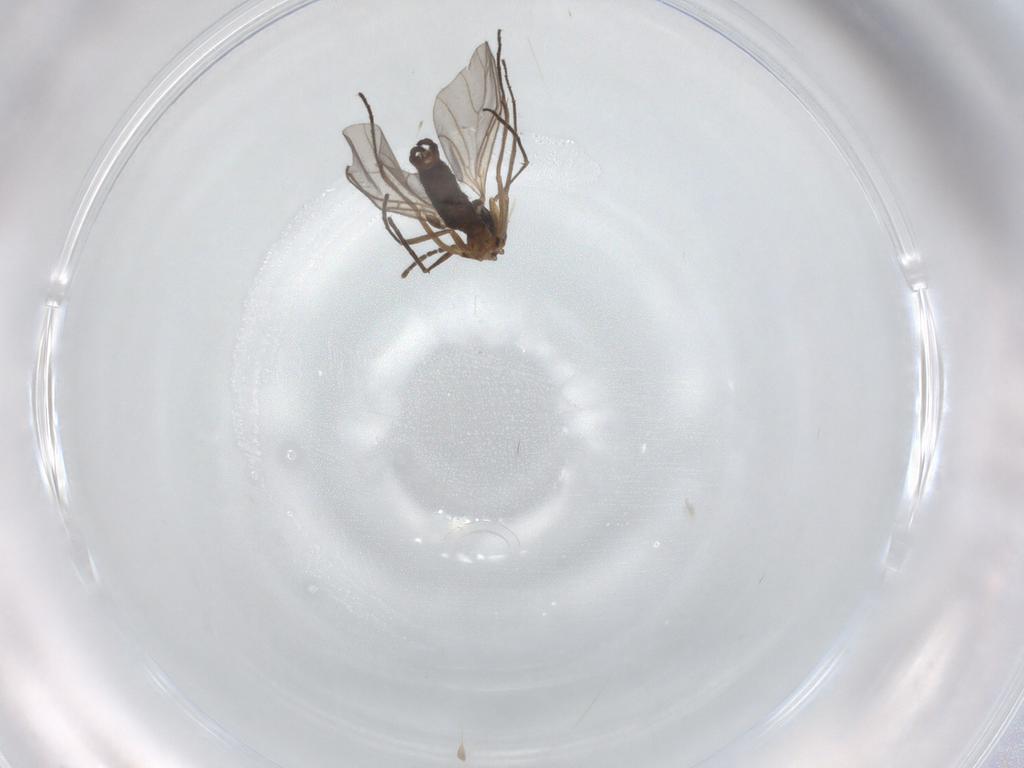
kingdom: Animalia
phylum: Arthropoda
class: Insecta
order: Diptera
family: Sciaridae
